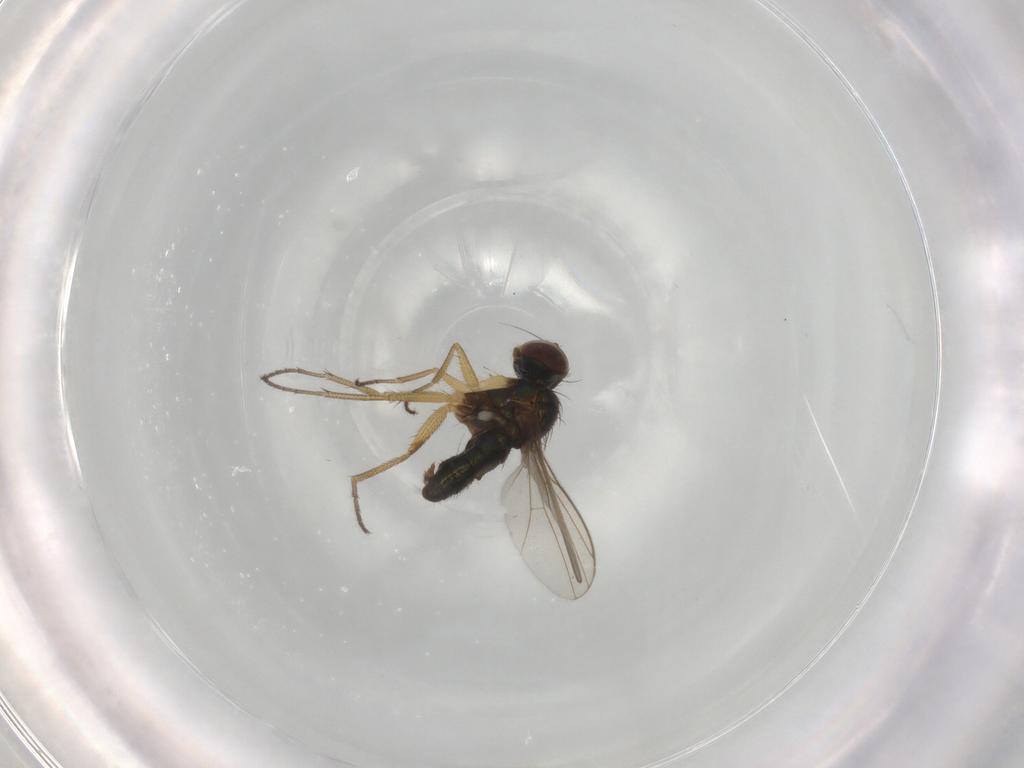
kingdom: Animalia
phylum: Arthropoda
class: Insecta
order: Diptera
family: Dolichopodidae
